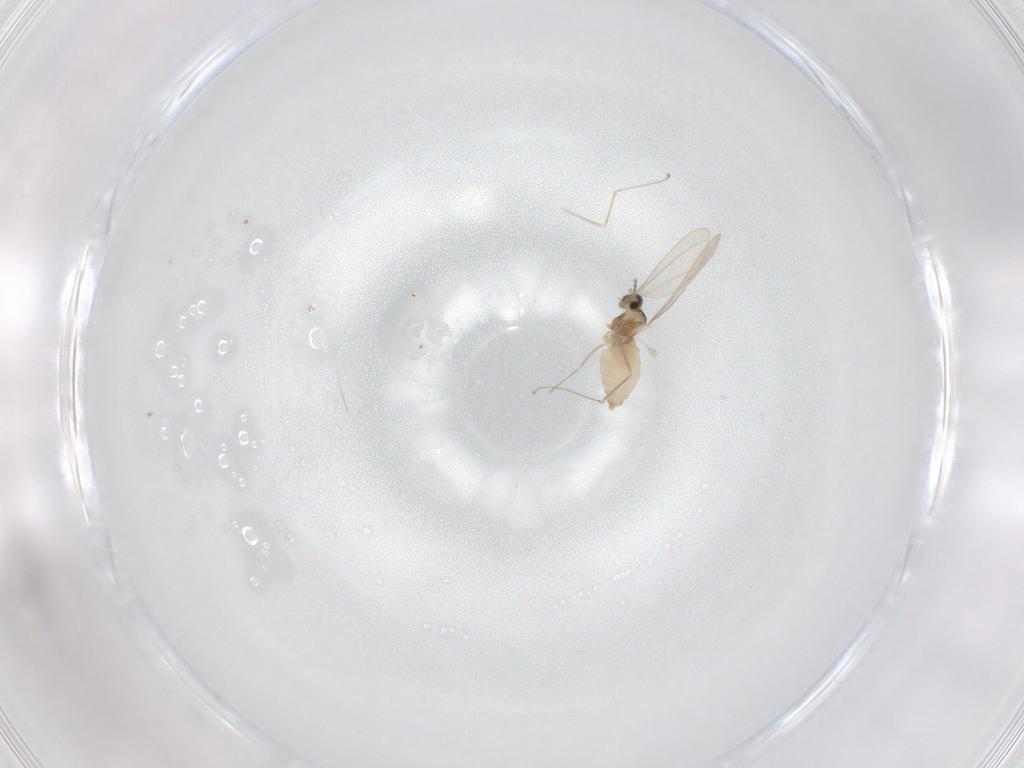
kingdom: Animalia
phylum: Arthropoda
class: Insecta
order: Diptera
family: Cecidomyiidae
